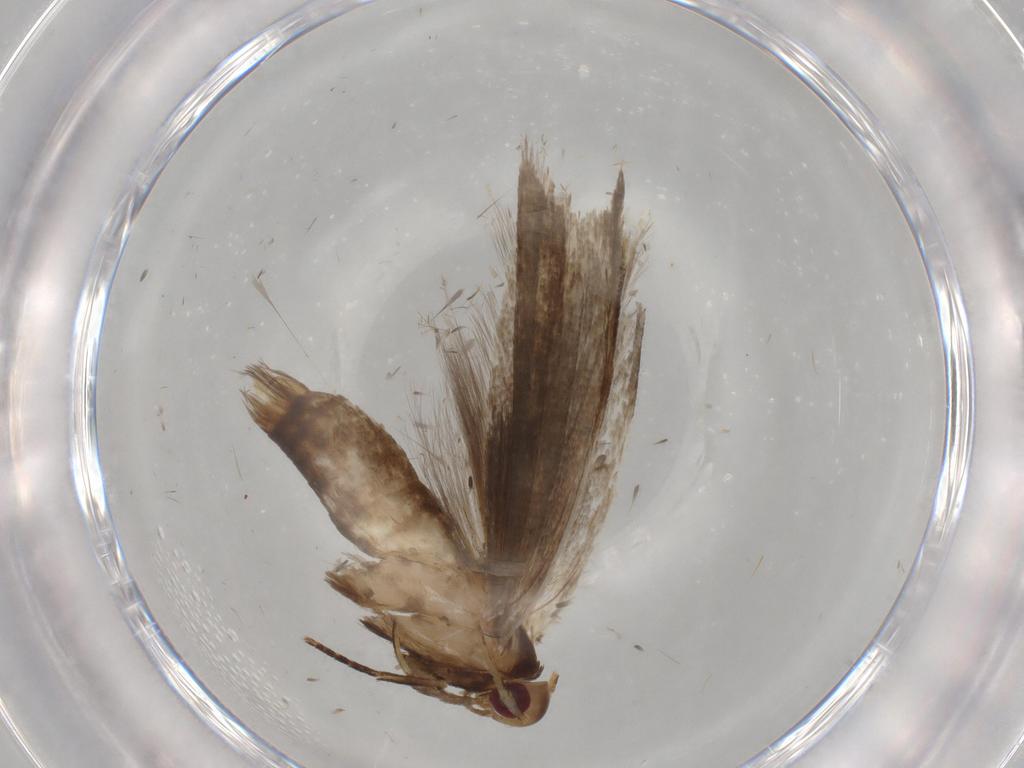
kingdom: Animalia
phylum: Arthropoda
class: Insecta
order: Lepidoptera
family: Gelechiidae
